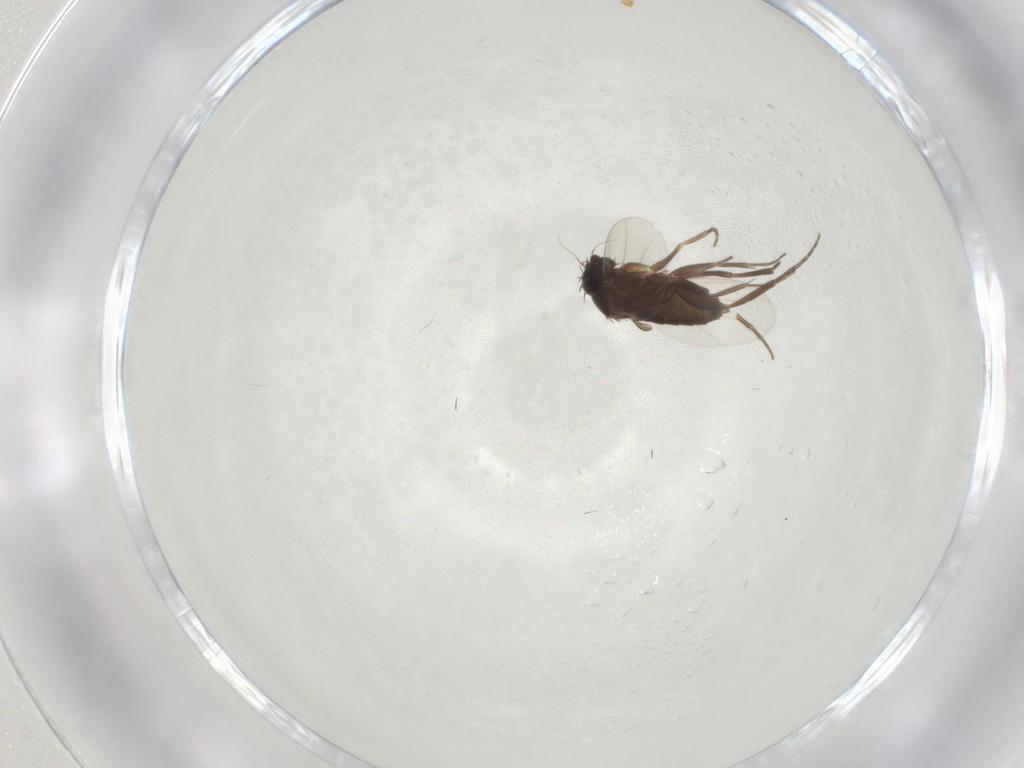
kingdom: Animalia
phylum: Arthropoda
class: Insecta
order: Diptera
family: Phoridae
